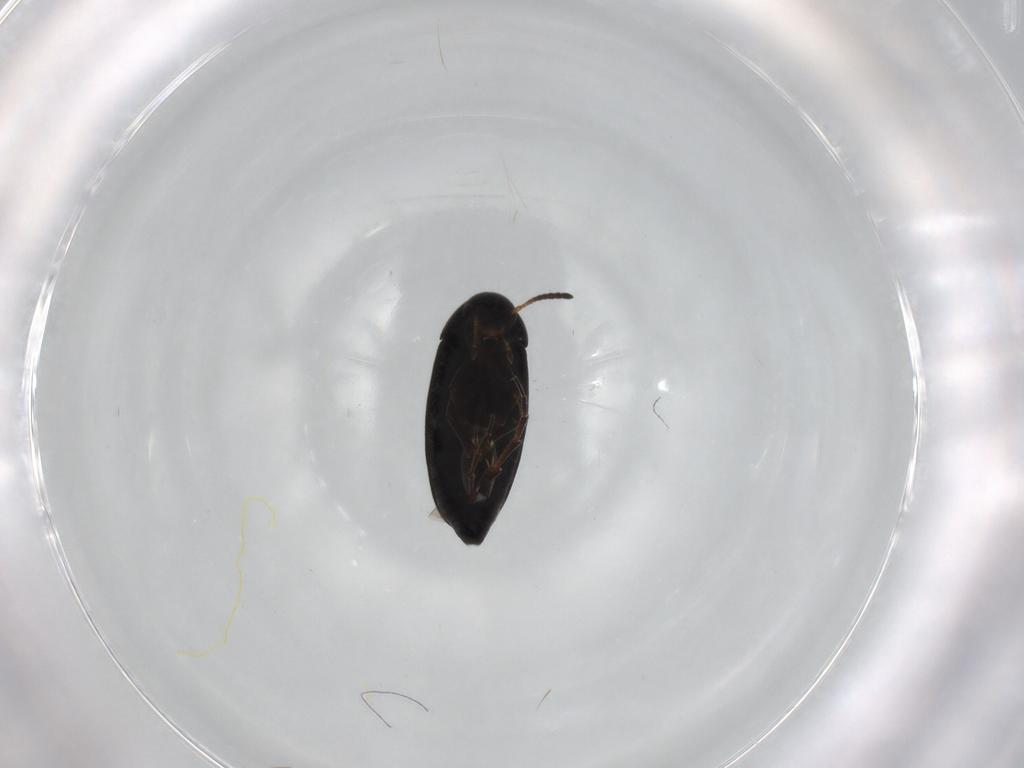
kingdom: Animalia
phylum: Arthropoda
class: Insecta
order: Coleoptera
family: Scraptiidae
